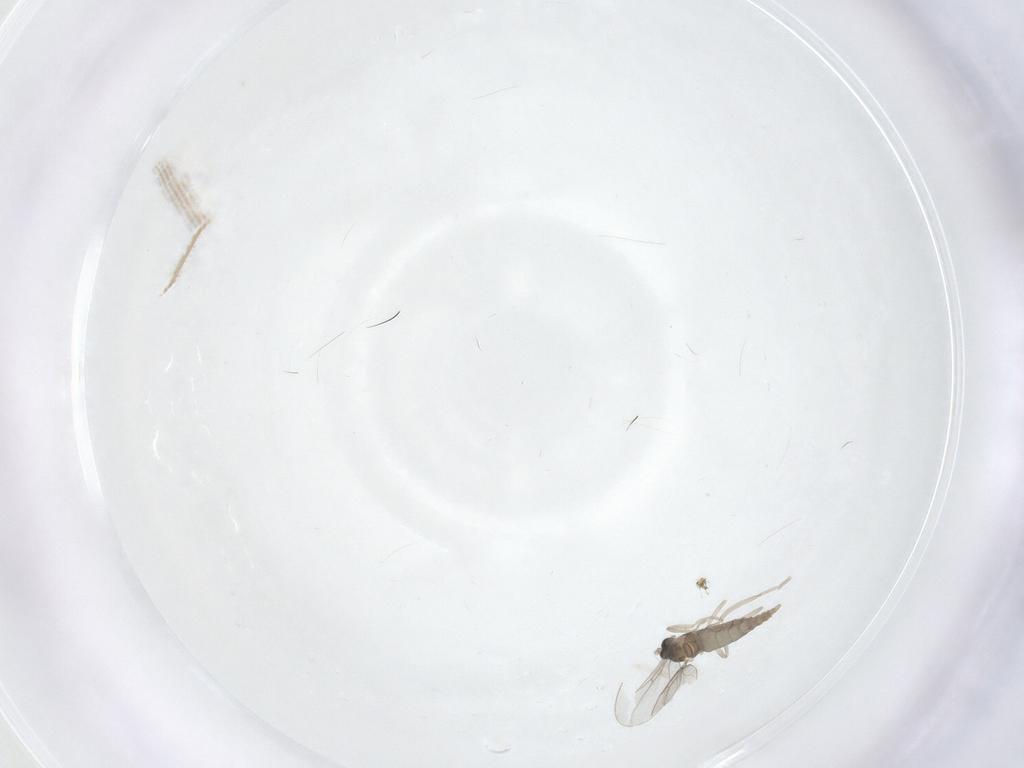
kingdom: Animalia
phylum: Arthropoda
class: Insecta
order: Diptera
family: Cecidomyiidae
